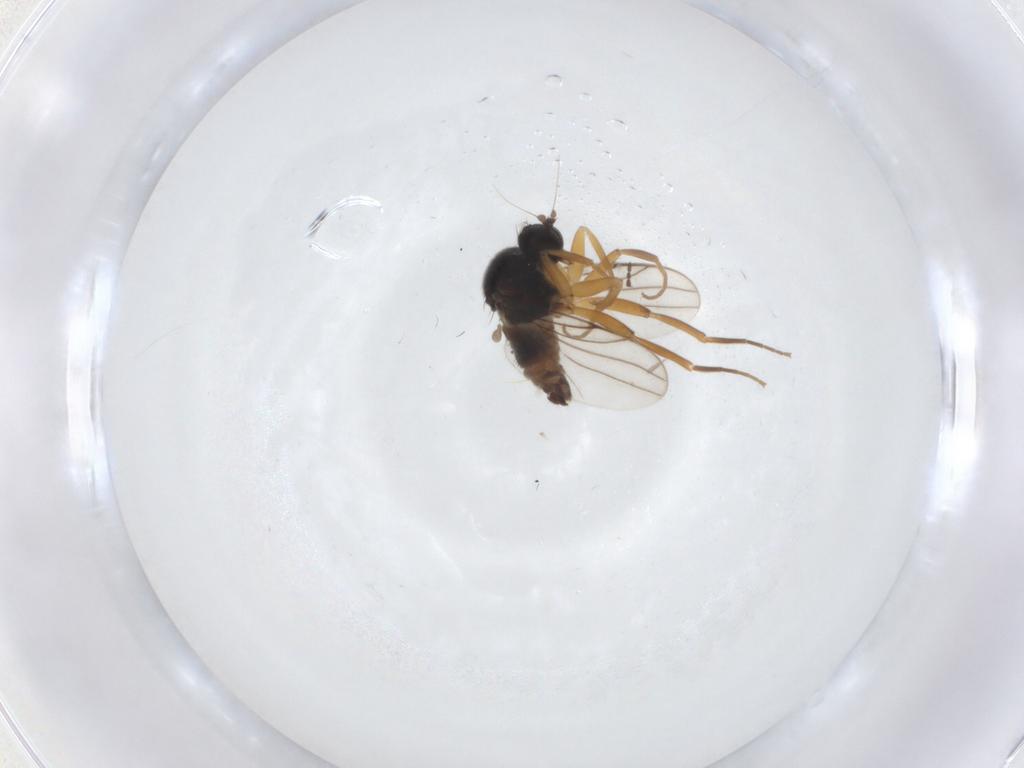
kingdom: Animalia
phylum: Arthropoda
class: Insecta
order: Diptera
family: Hybotidae
